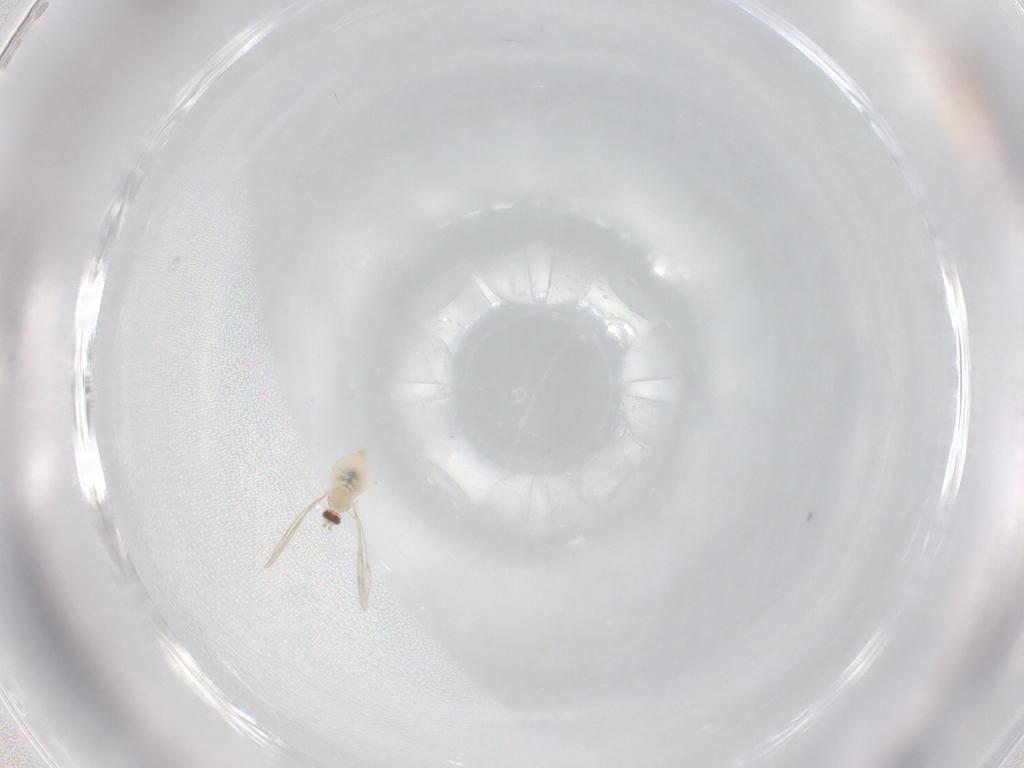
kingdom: Animalia
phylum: Arthropoda
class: Insecta
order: Diptera
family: Cecidomyiidae
